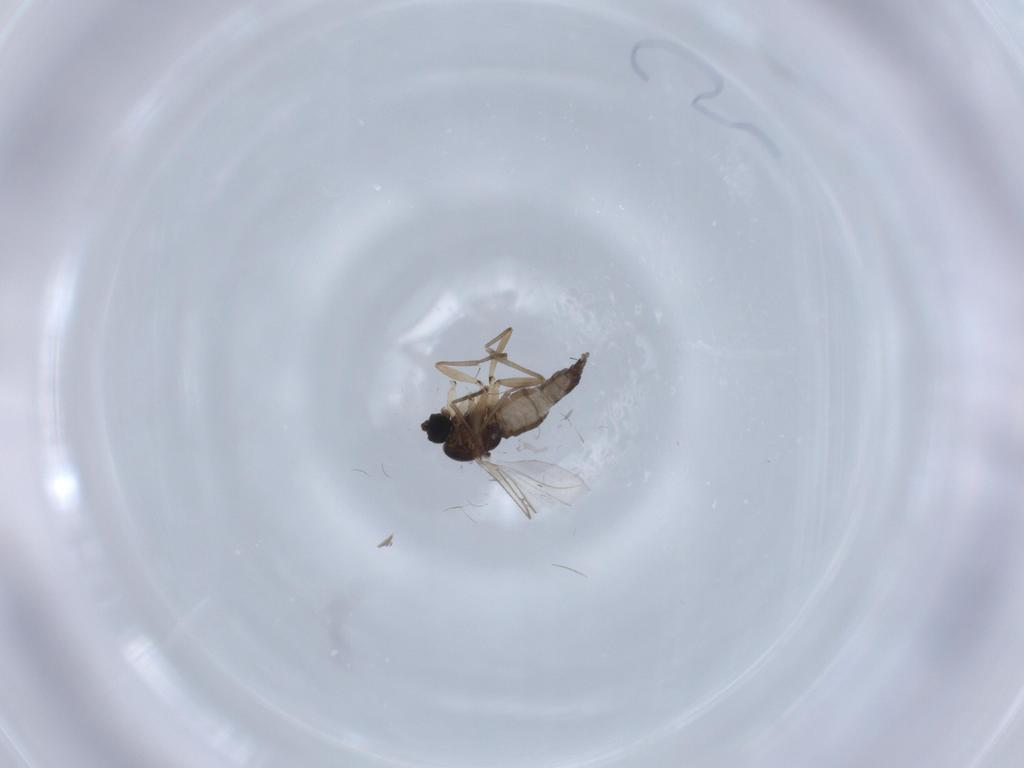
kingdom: Animalia
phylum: Arthropoda
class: Insecta
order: Diptera
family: Sciaridae
